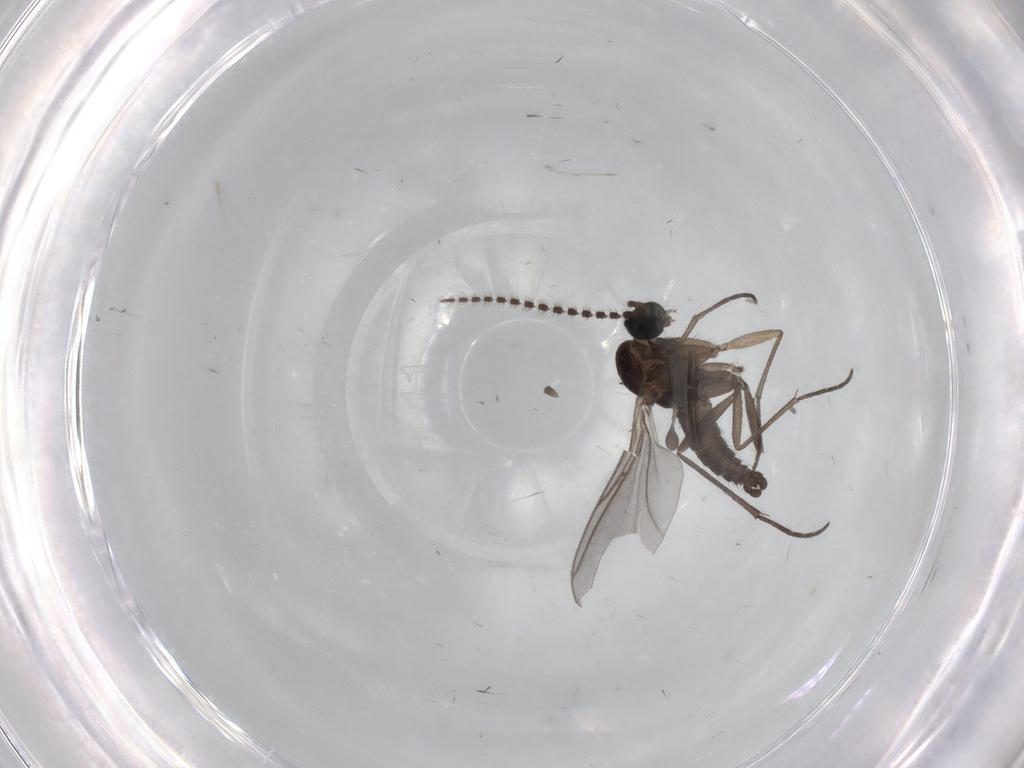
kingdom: Animalia
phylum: Arthropoda
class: Insecta
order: Diptera
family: Sciaridae
